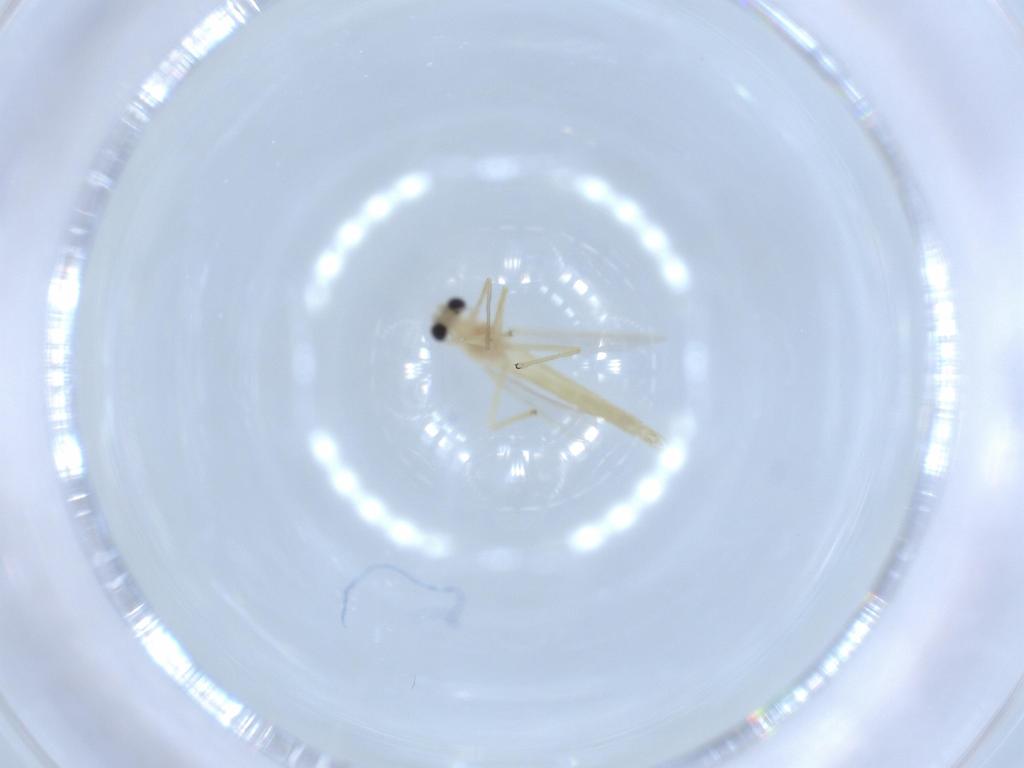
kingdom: Animalia
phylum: Arthropoda
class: Insecta
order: Diptera
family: Chironomidae
